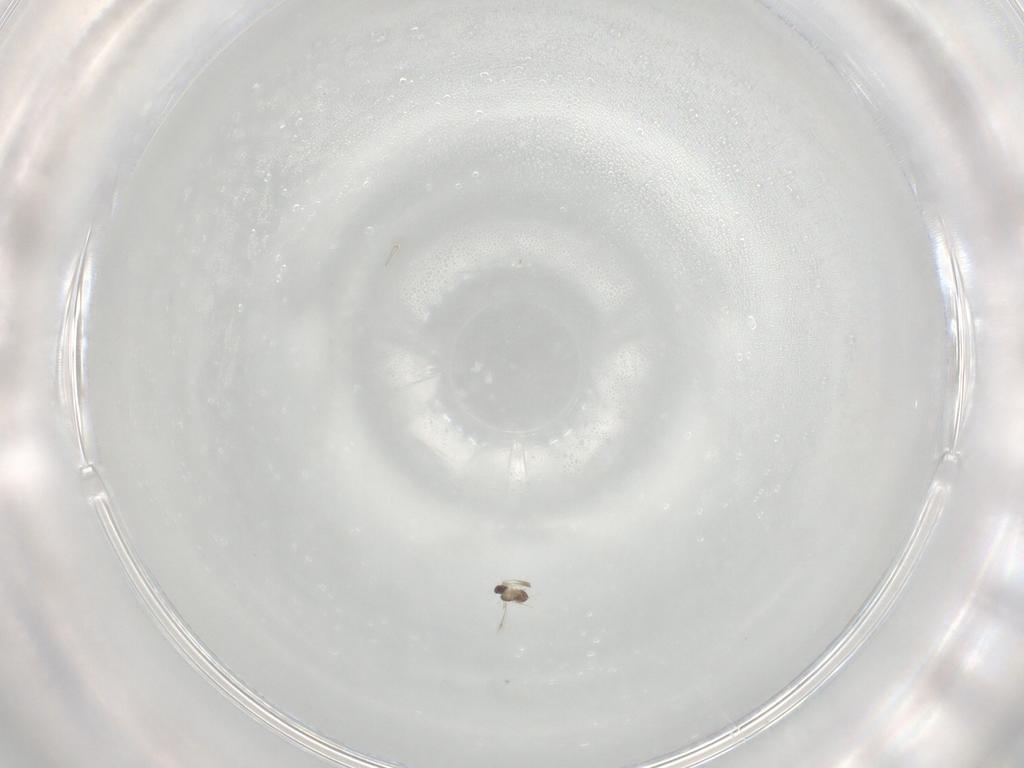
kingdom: Animalia
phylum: Arthropoda
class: Insecta
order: Hymenoptera
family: Mymaridae
